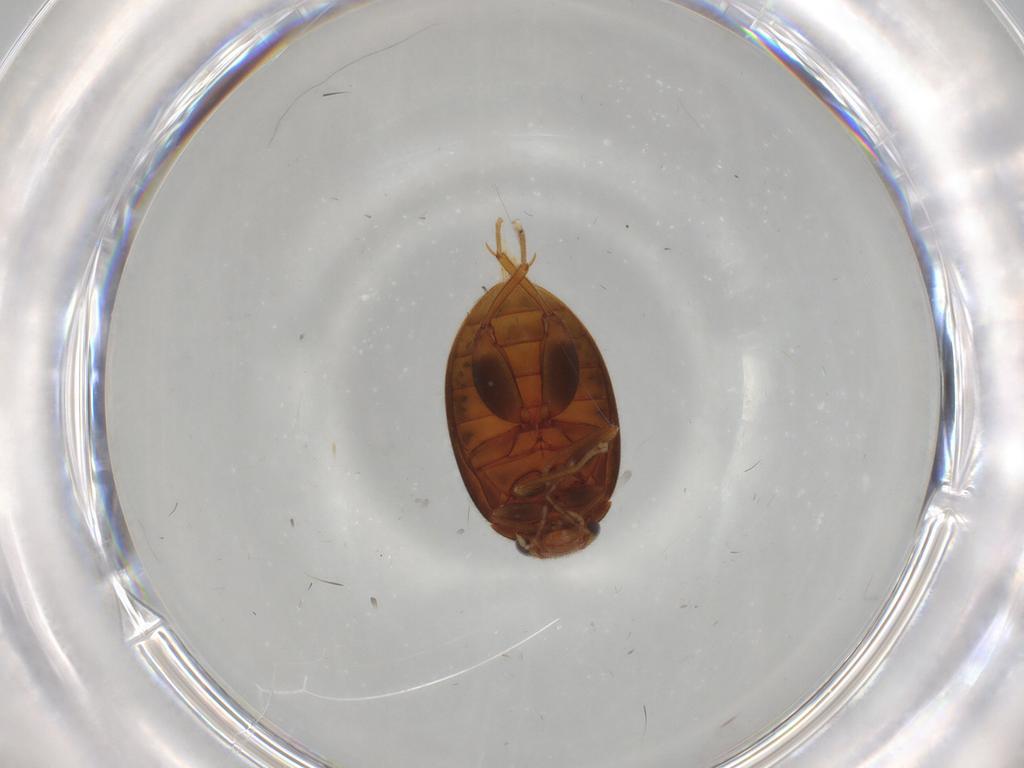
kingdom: Animalia
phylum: Arthropoda
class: Insecta
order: Coleoptera
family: Scirtidae
